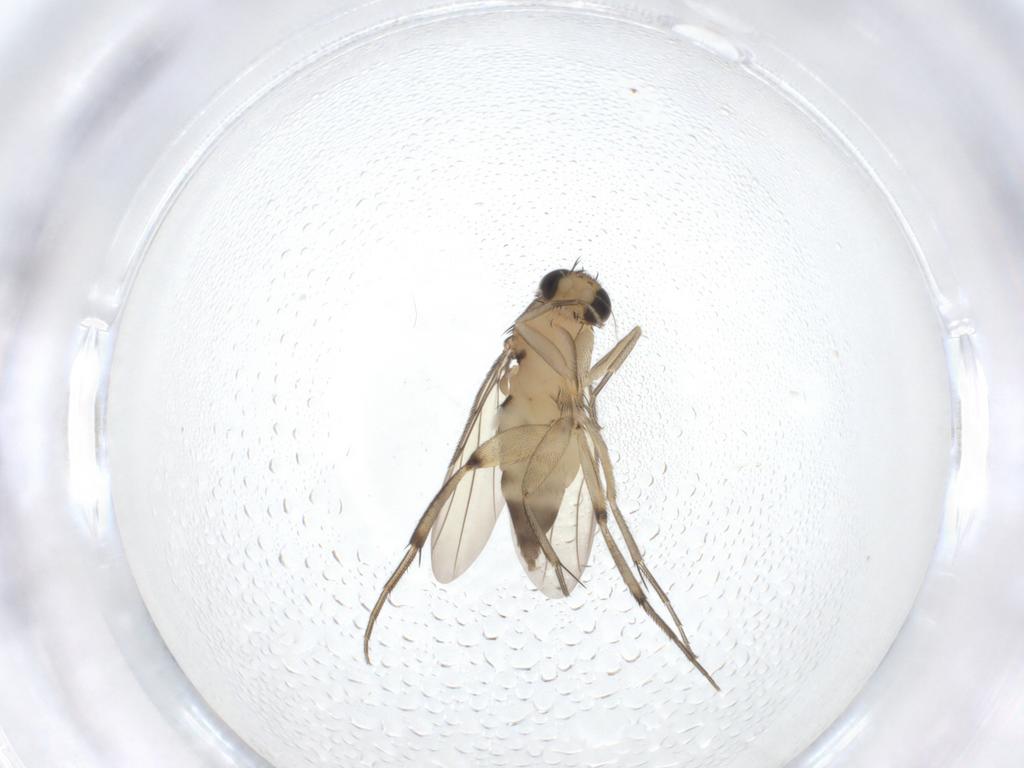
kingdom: Animalia
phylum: Arthropoda
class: Insecta
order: Diptera
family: Phoridae
